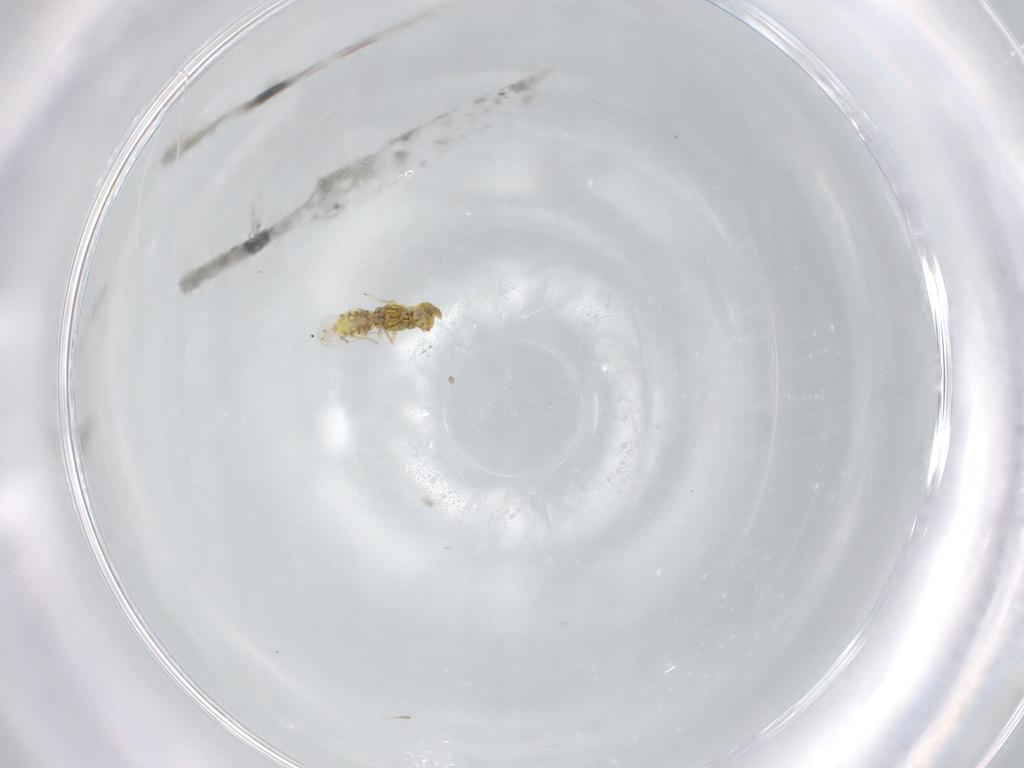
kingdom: Animalia
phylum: Arthropoda
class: Insecta
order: Hymenoptera
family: Eulophidae
